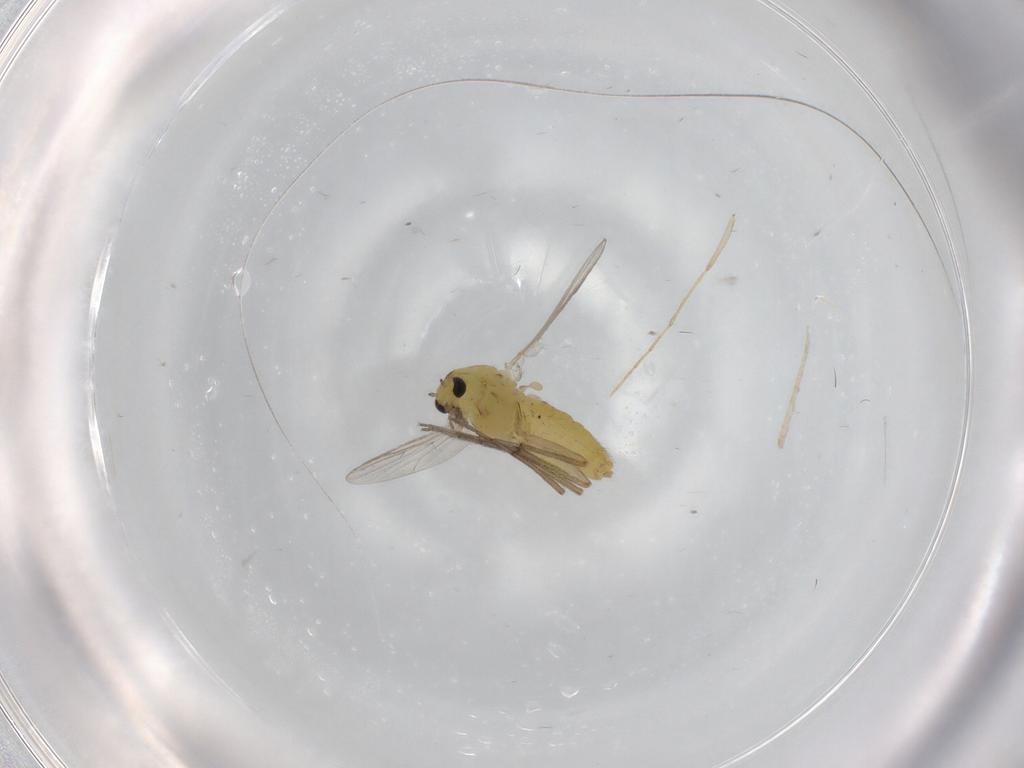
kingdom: Animalia
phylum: Arthropoda
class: Insecta
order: Diptera
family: Chironomidae
